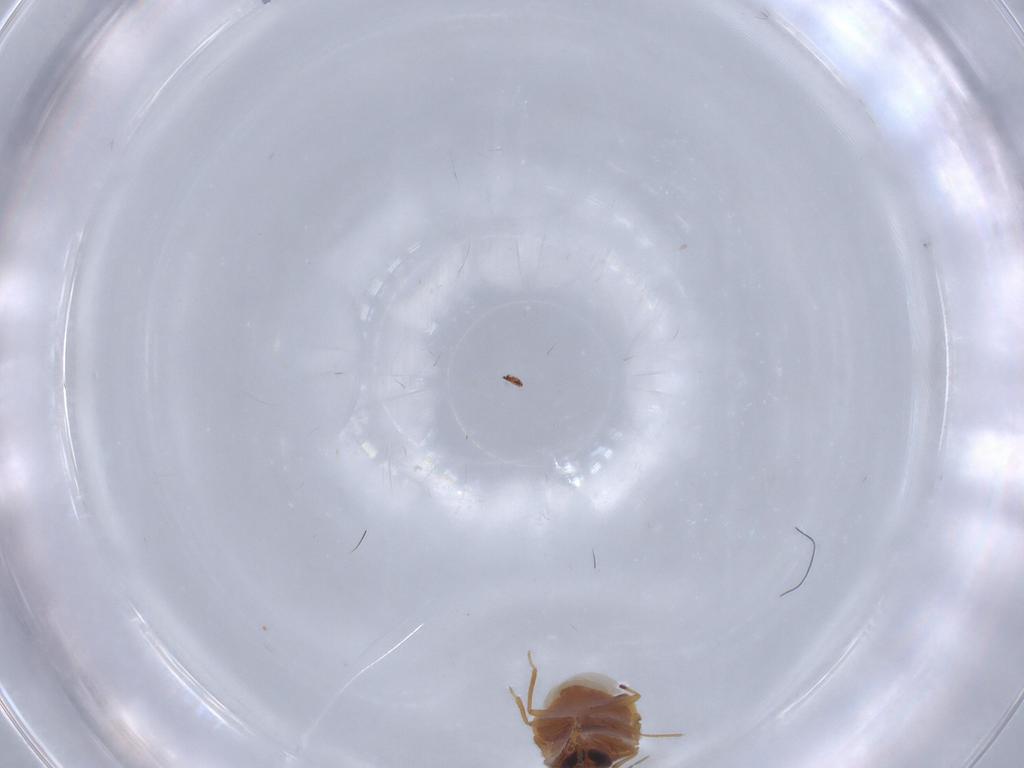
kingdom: Animalia
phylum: Arthropoda
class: Insecta
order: Hemiptera
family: Anthocoridae
